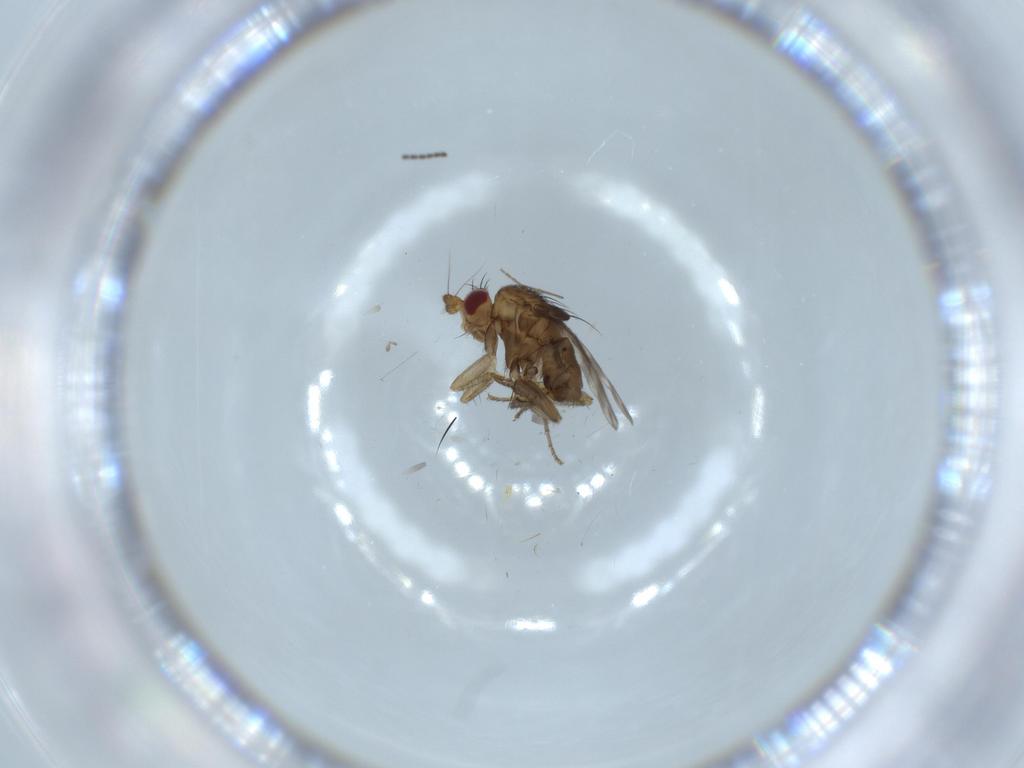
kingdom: Animalia
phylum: Arthropoda
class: Insecta
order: Diptera
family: Sphaeroceridae
